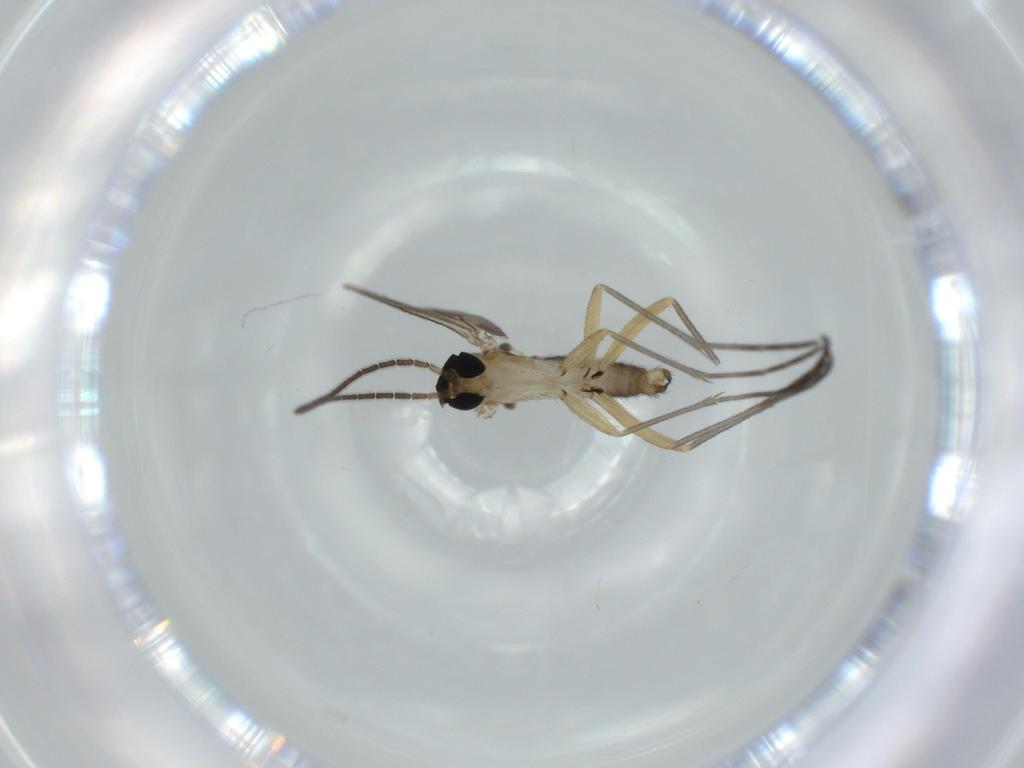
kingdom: Animalia
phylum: Arthropoda
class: Insecta
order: Diptera
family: Sciaridae
